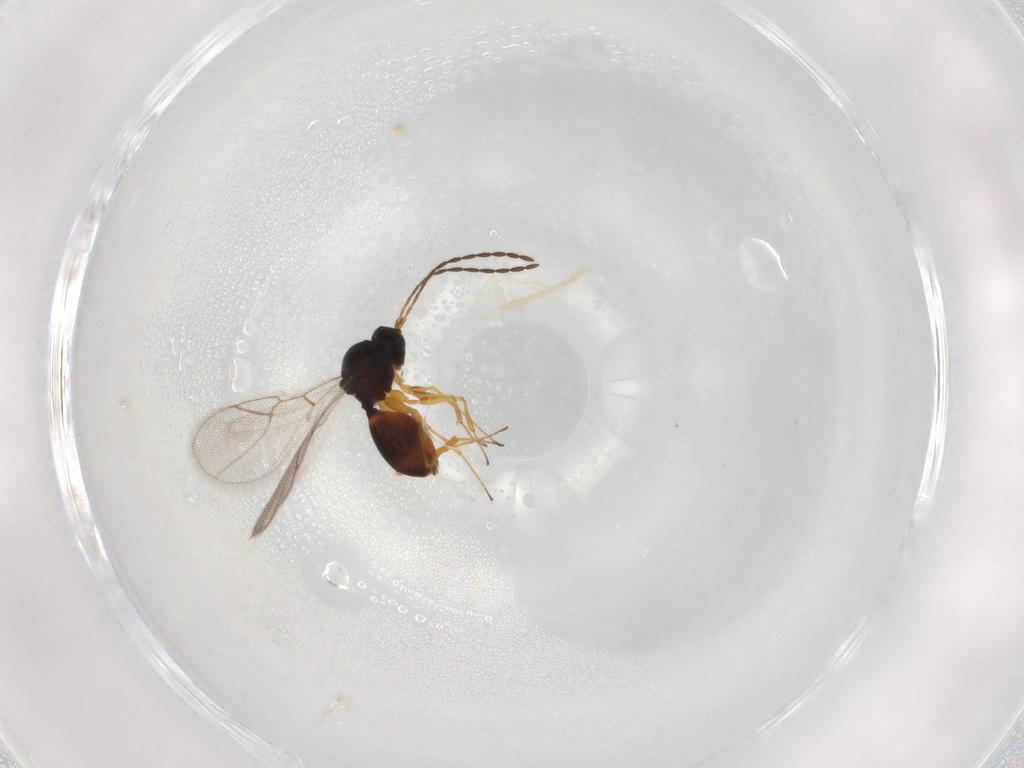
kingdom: Animalia
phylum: Arthropoda
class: Insecta
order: Hymenoptera
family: Figitidae
